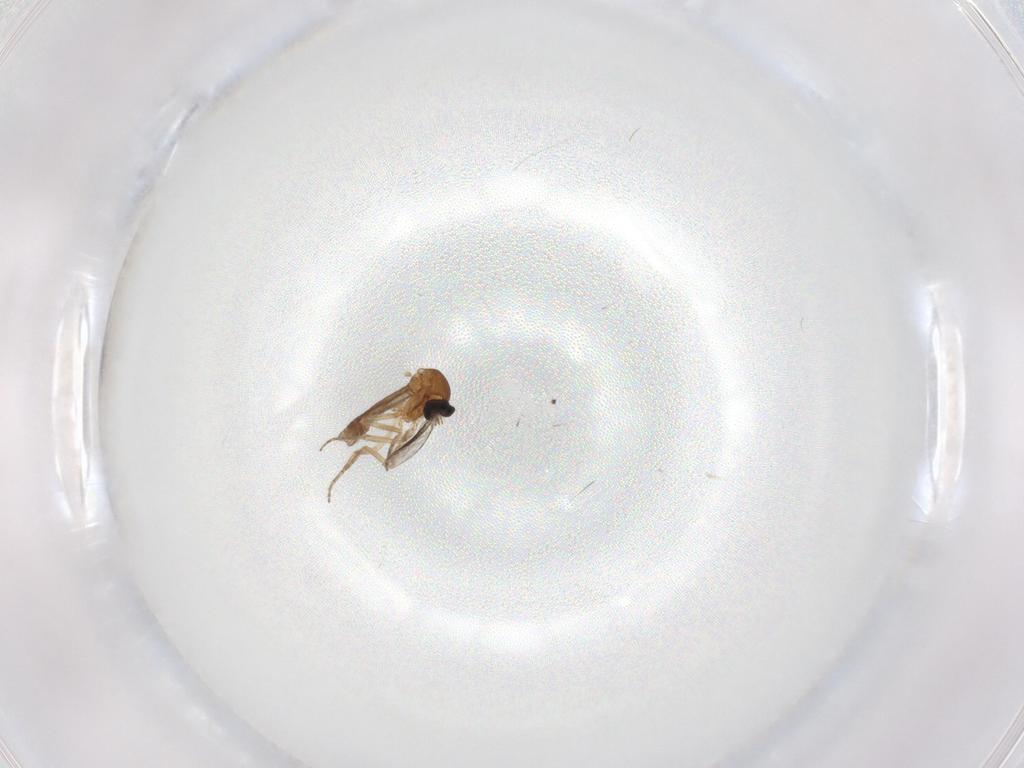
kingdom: Animalia
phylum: Arthropoda
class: Insecta
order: Diptera
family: Ceratopogonidae
